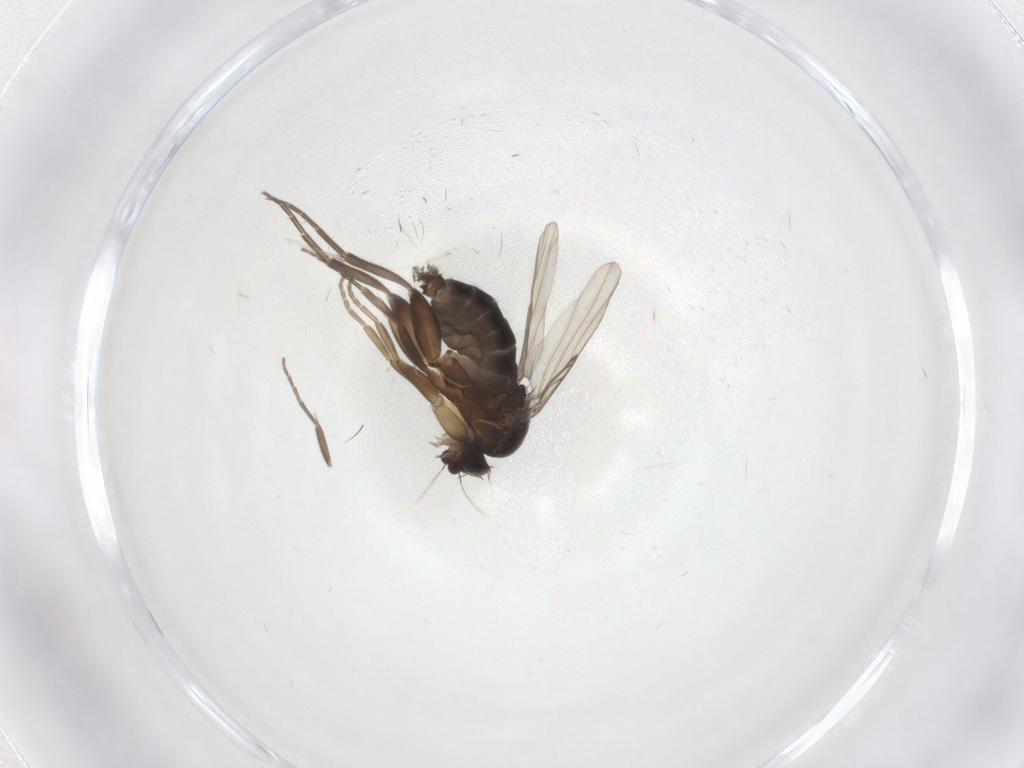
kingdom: Animalia
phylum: Arthropoda
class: Insecta
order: Diptera
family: Phoridae
